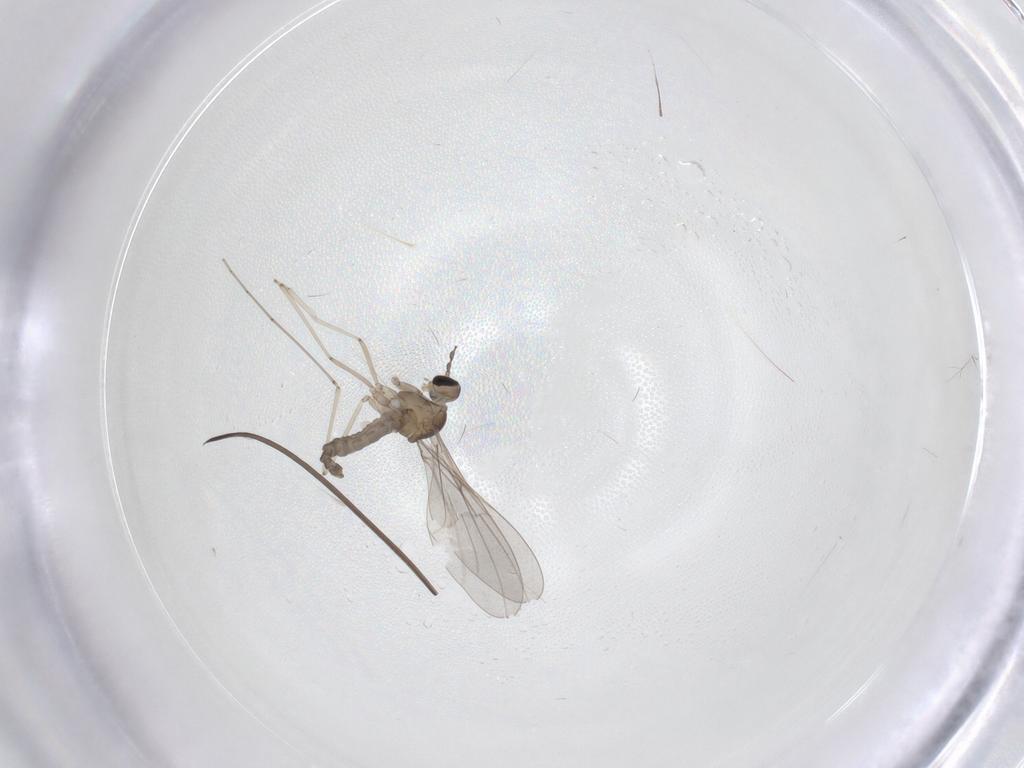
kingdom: Animalia
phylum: Arthropoda
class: Insecta
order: Diptera
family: Cecidomyiidae
